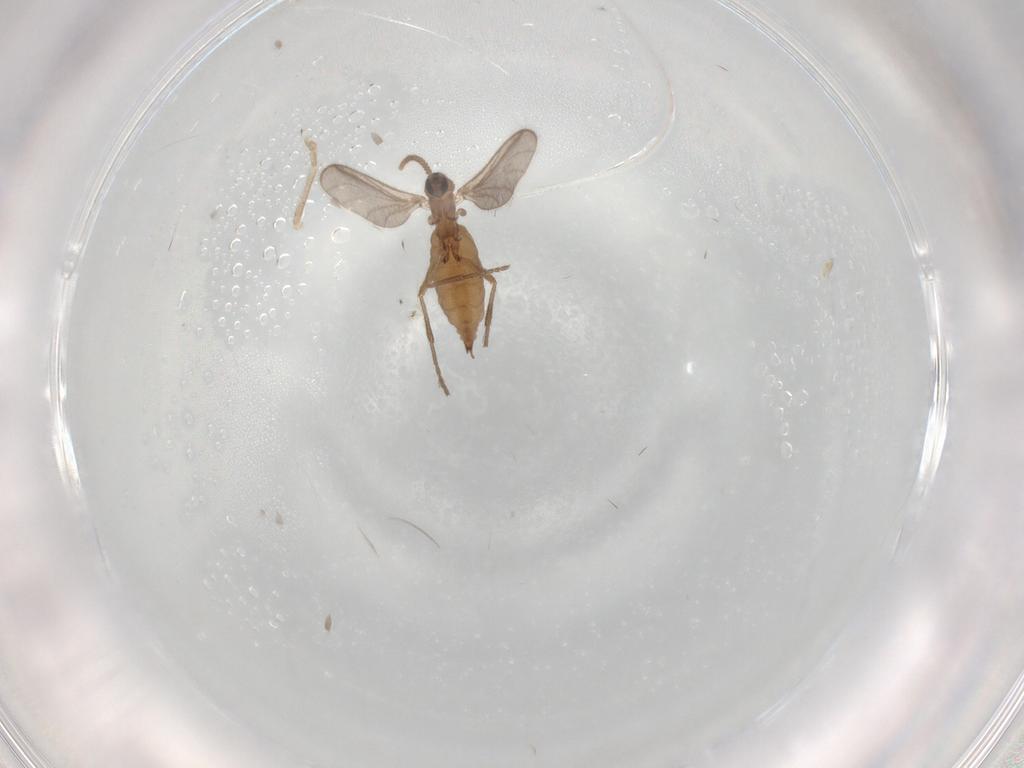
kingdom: Animalia
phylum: Arthropoda
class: Insecta
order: Diptera
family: Sciaridae
